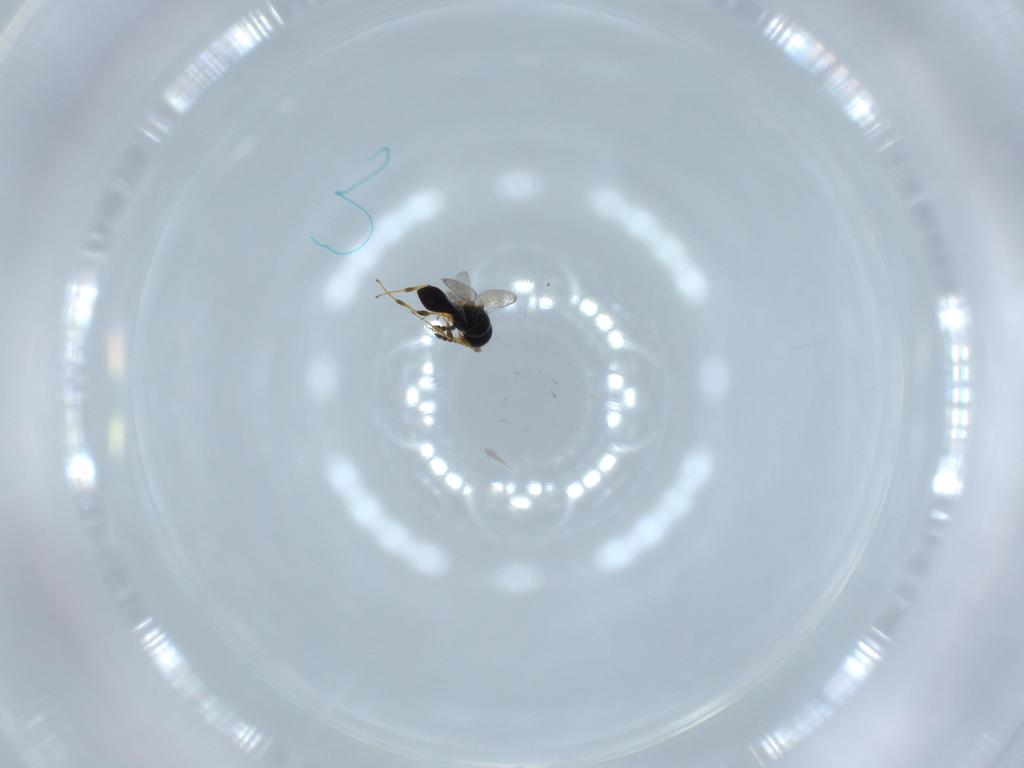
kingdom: Animalia
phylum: Arthropoda
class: Insecta
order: Hymenoptera
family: Platygastridae
